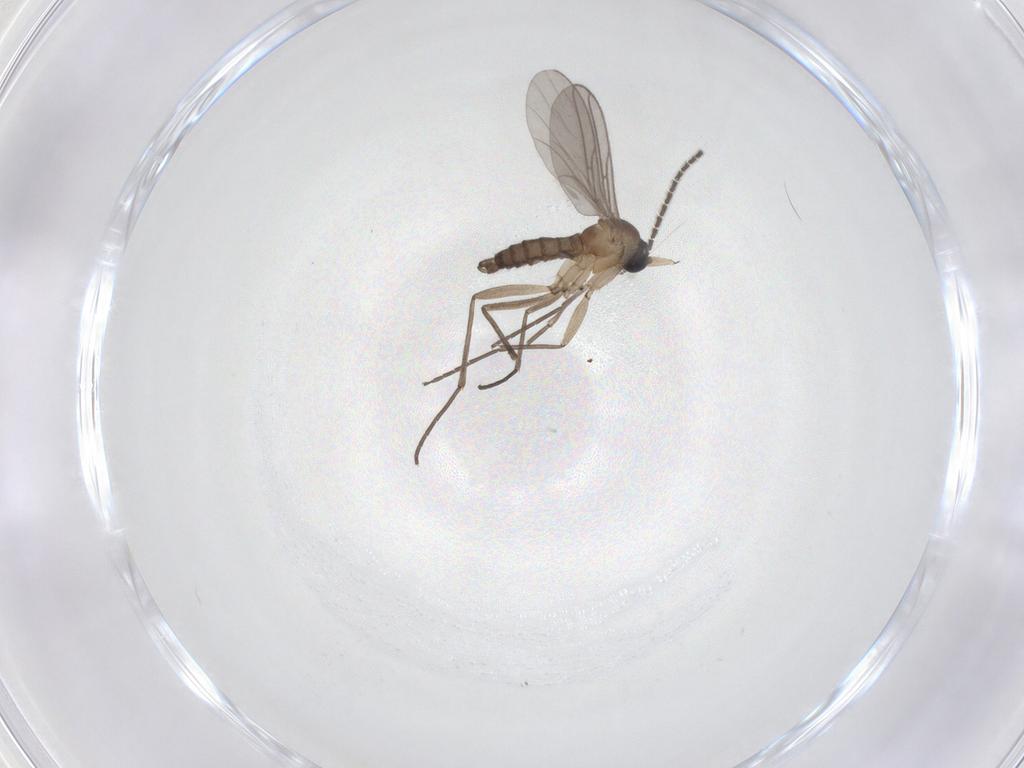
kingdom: Animalia
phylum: Arthropoda
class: Insecta
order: Diptera
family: Sciaridae
